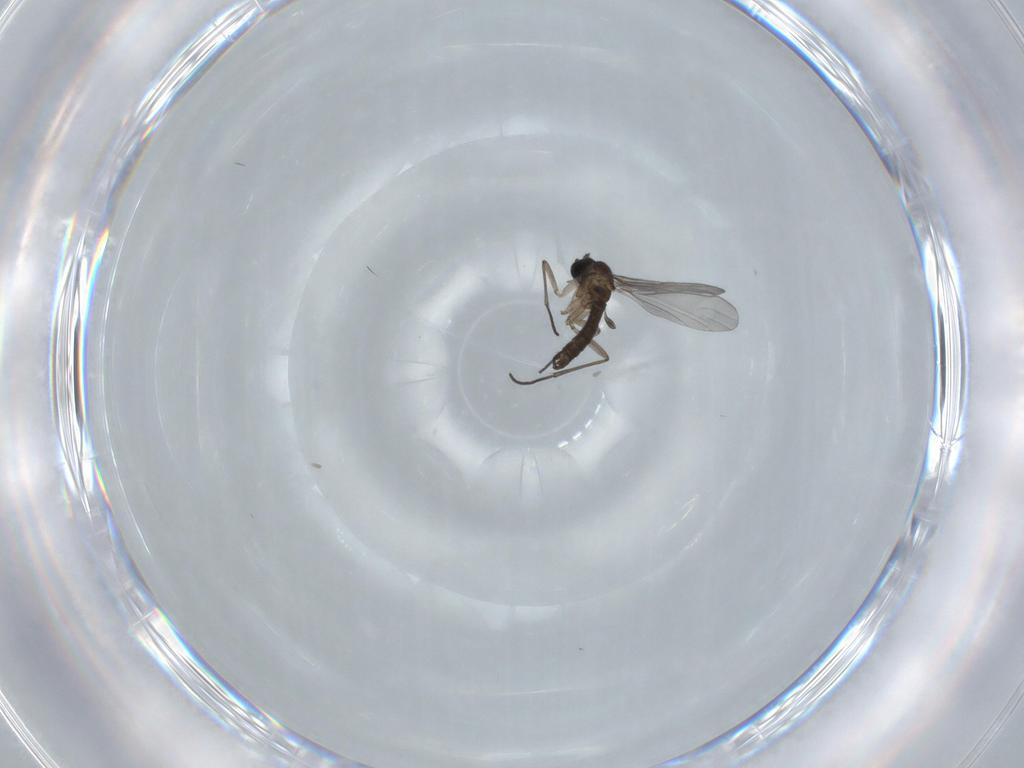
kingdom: Animalia
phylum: Arthropoda
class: Insecta
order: Diptera
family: Sciaridae
